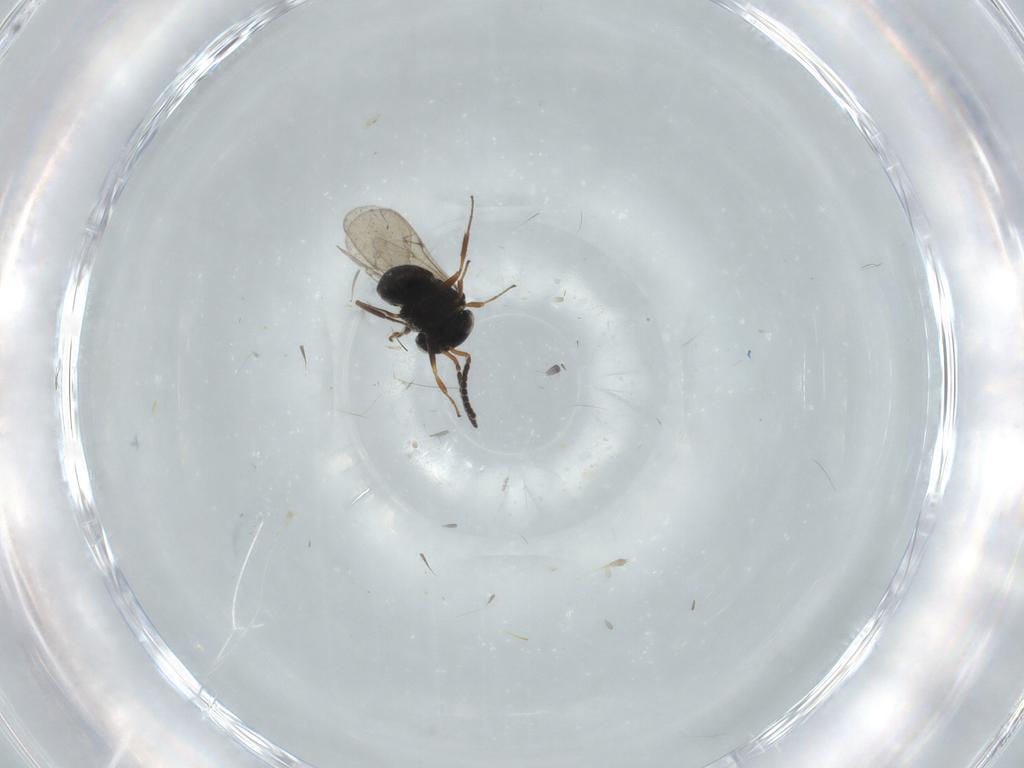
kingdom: Animalia
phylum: Arthropoda
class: Insecta
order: Hymenoptera
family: Scelionidae
